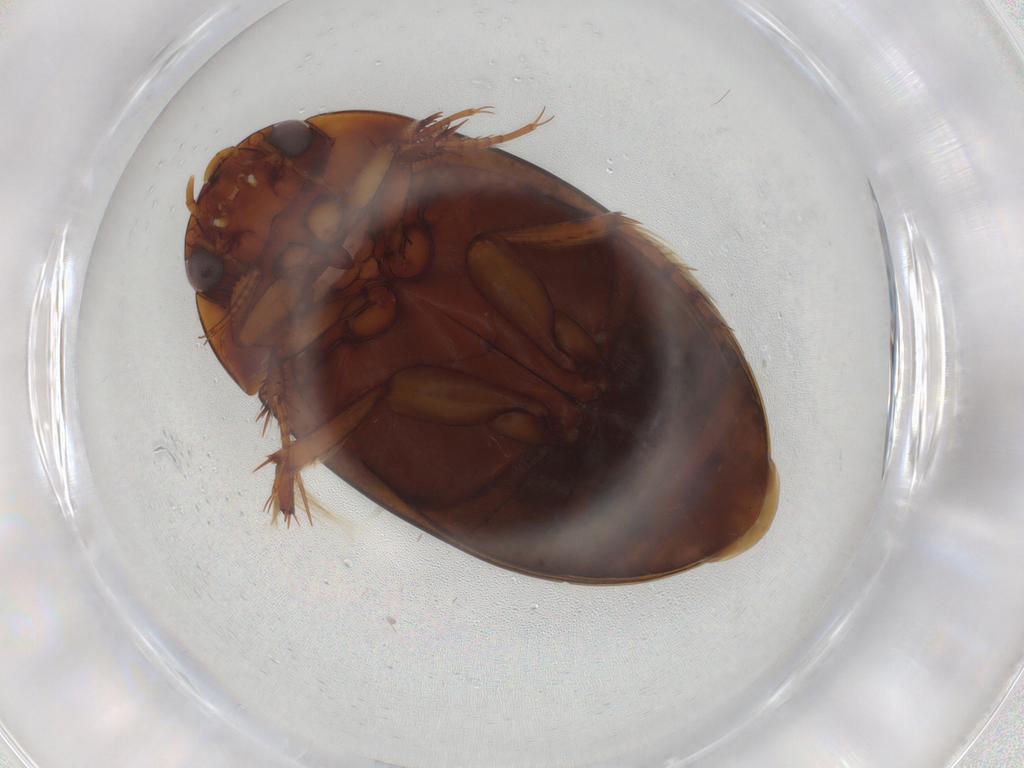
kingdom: Animalia
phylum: Arthropoda
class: Insecta
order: Coleoptera
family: Dytiscidae
